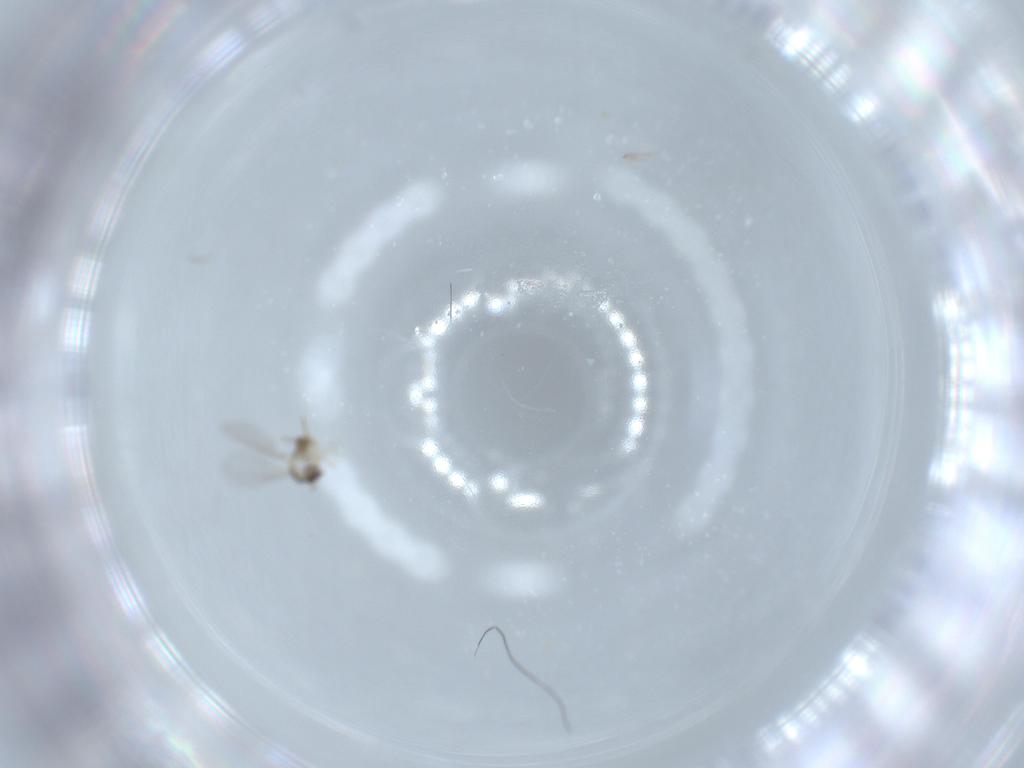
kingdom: Animalia
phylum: Arthropoda
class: Insecta
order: Diptera
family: Cecidomyiidae
